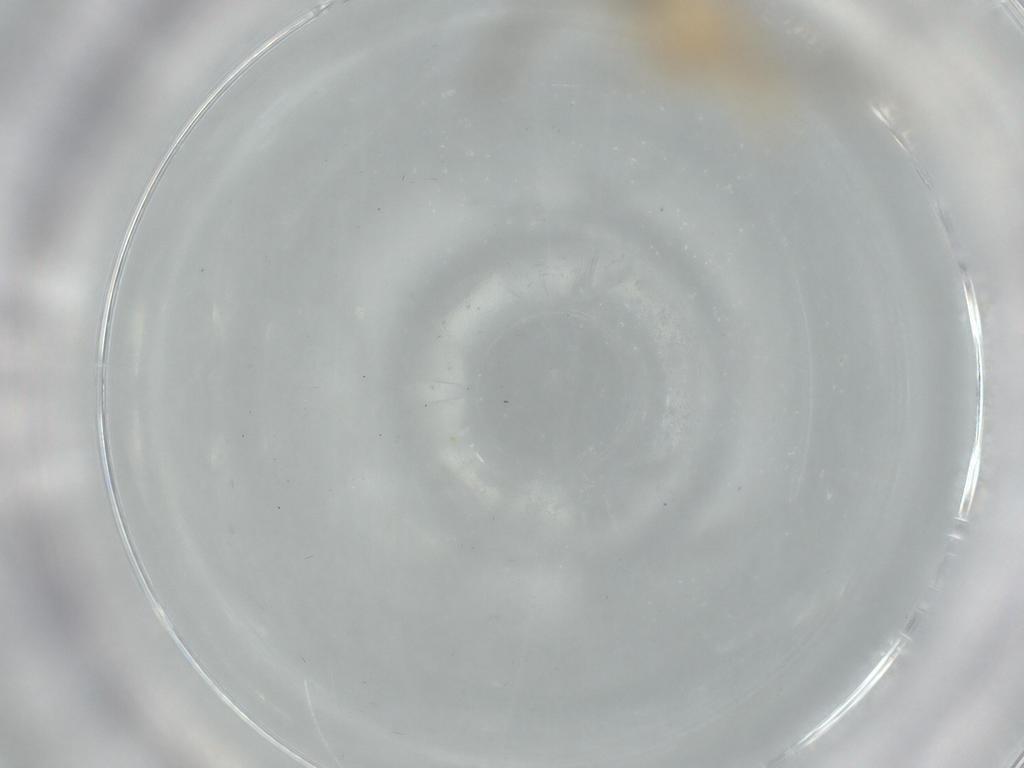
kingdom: Animalia
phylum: Arthropoda
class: Insecta
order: Neuroptera
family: Coniopterygidae
